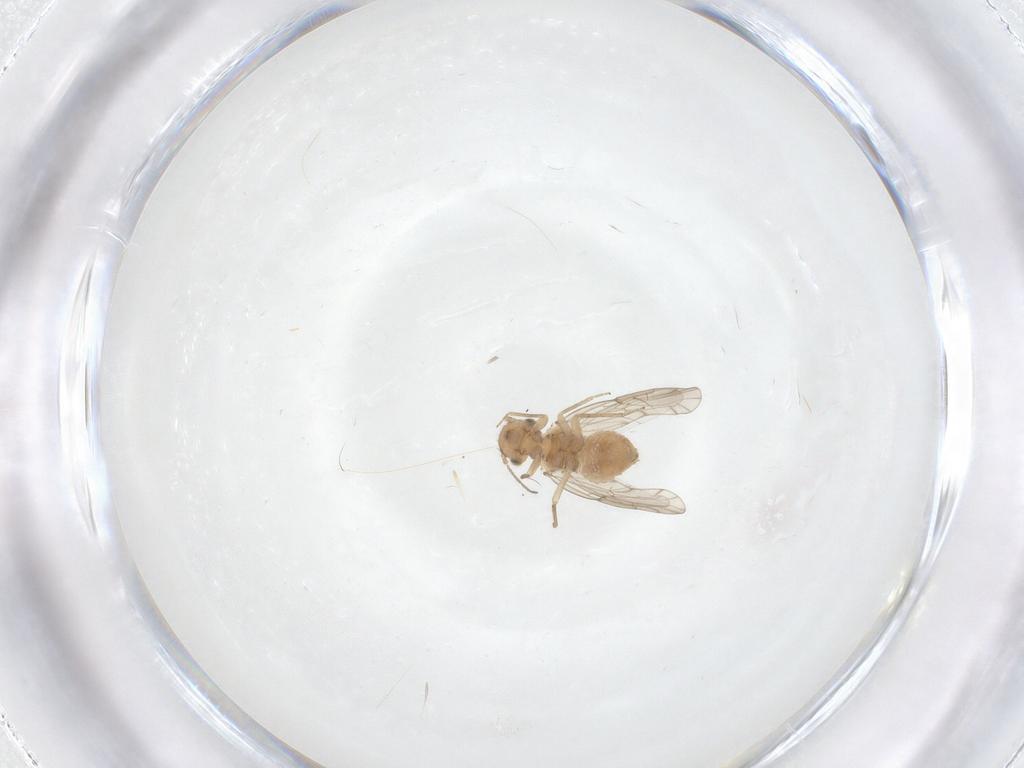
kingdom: Animalia
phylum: Arthropoda
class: Insecta
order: Psocodea
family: Ectopsocidae
